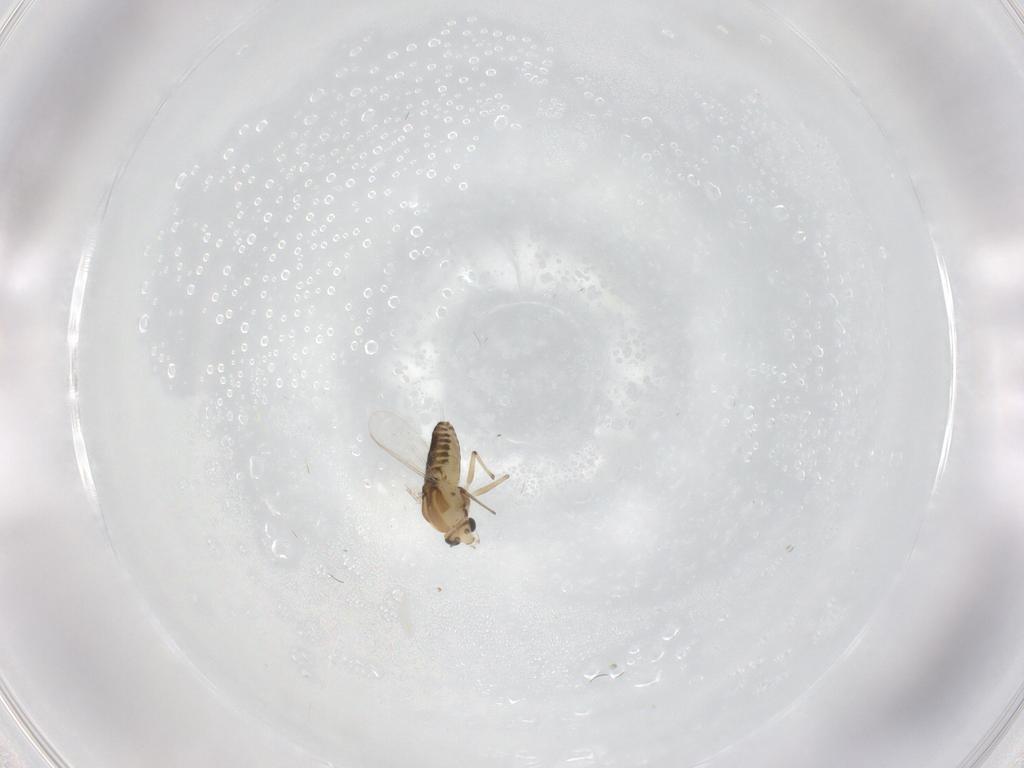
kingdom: Animalia
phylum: Arthropoda
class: Insecta
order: Diptera
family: Chironomidae
